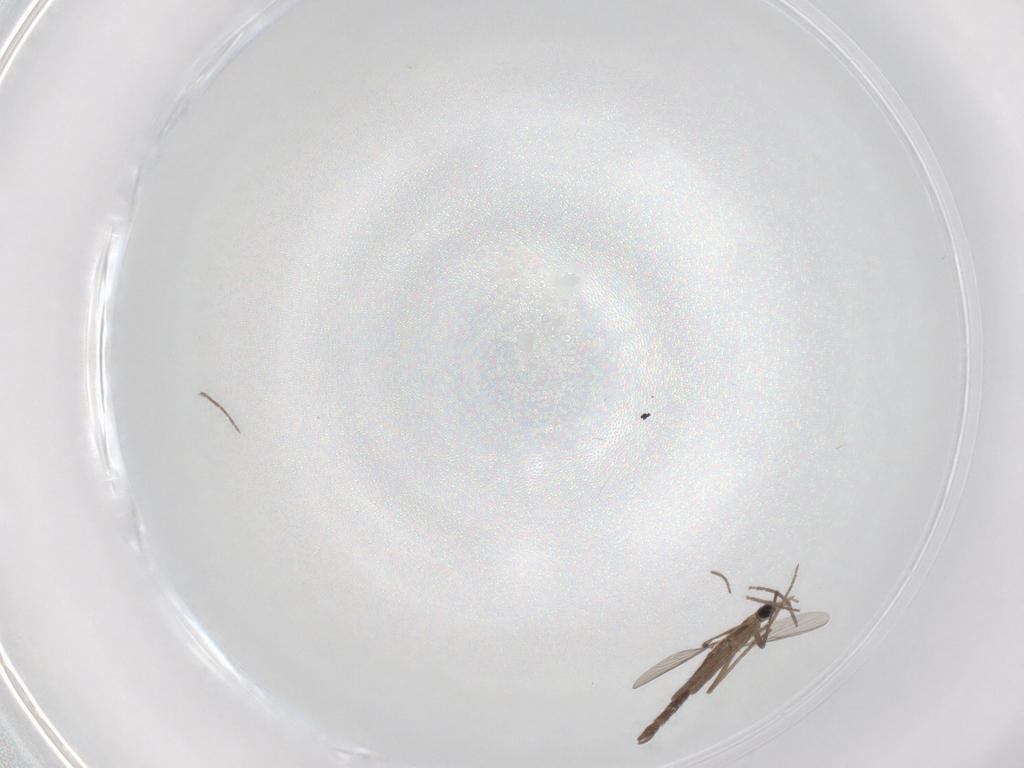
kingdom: Animalia
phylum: Arthropoda
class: Insecta
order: Diptera
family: Chironomidae
